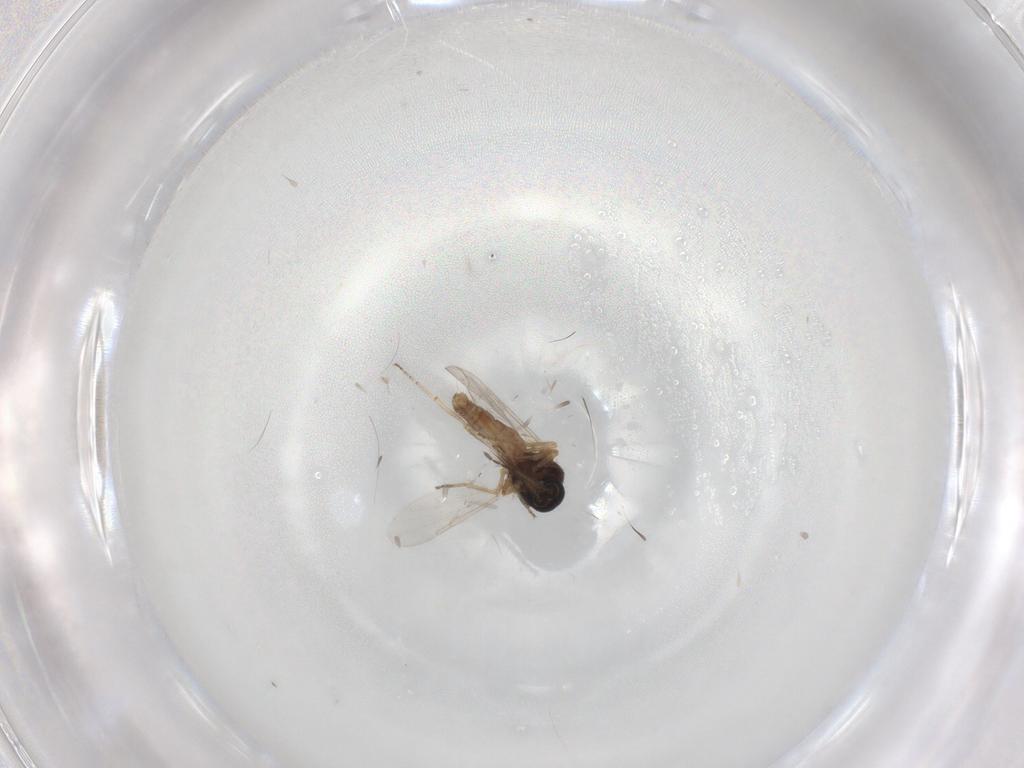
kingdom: Animalia
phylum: Arthropoda
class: Insecta
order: Diptera
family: Ceratopogonidae
